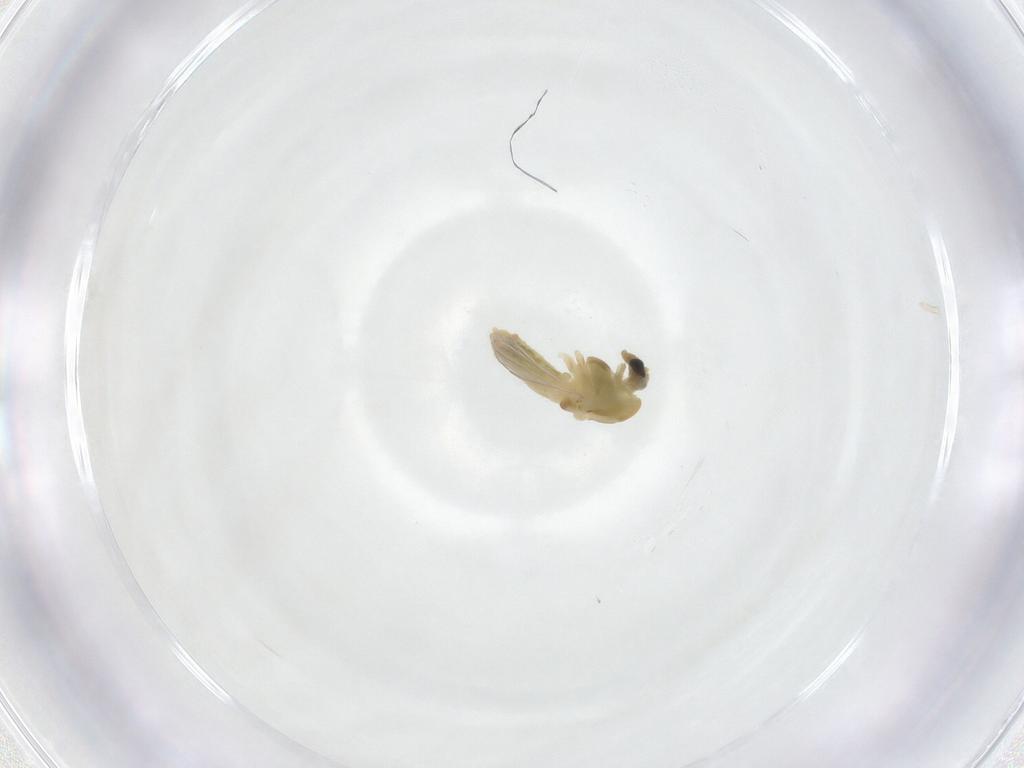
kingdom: Animalia
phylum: Arthropoda
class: Insecta
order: Diptera
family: Chironomidae
